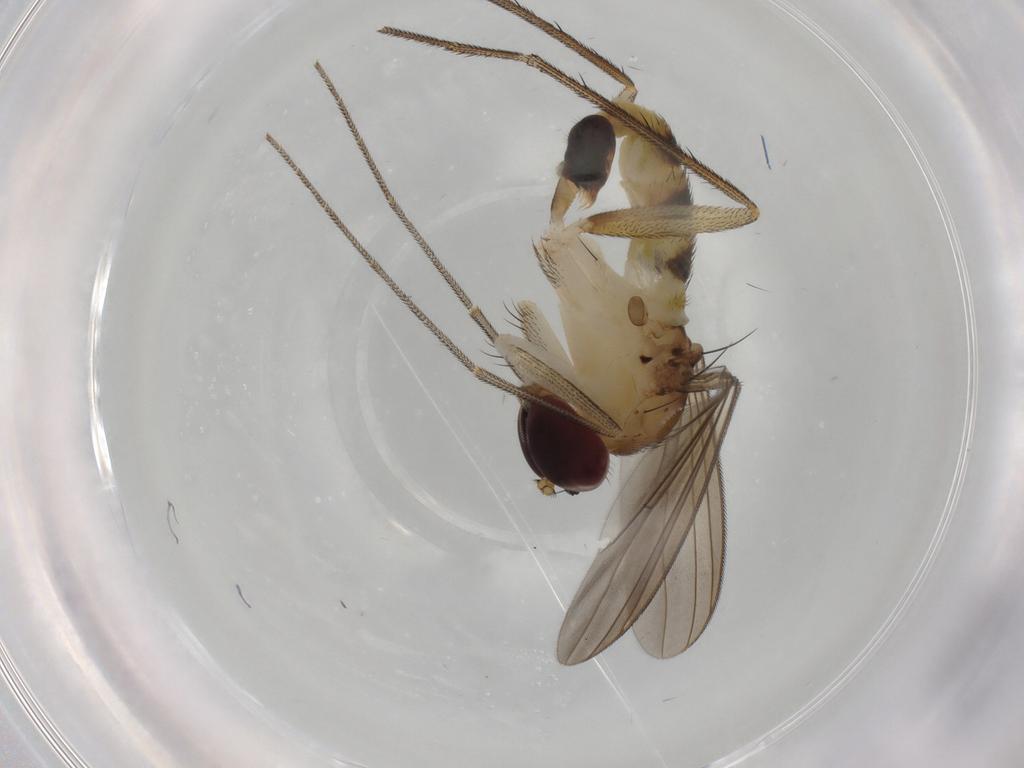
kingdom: Animalia
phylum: Arthropoda
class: Insecta
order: Diptera
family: Dolichopodidae
